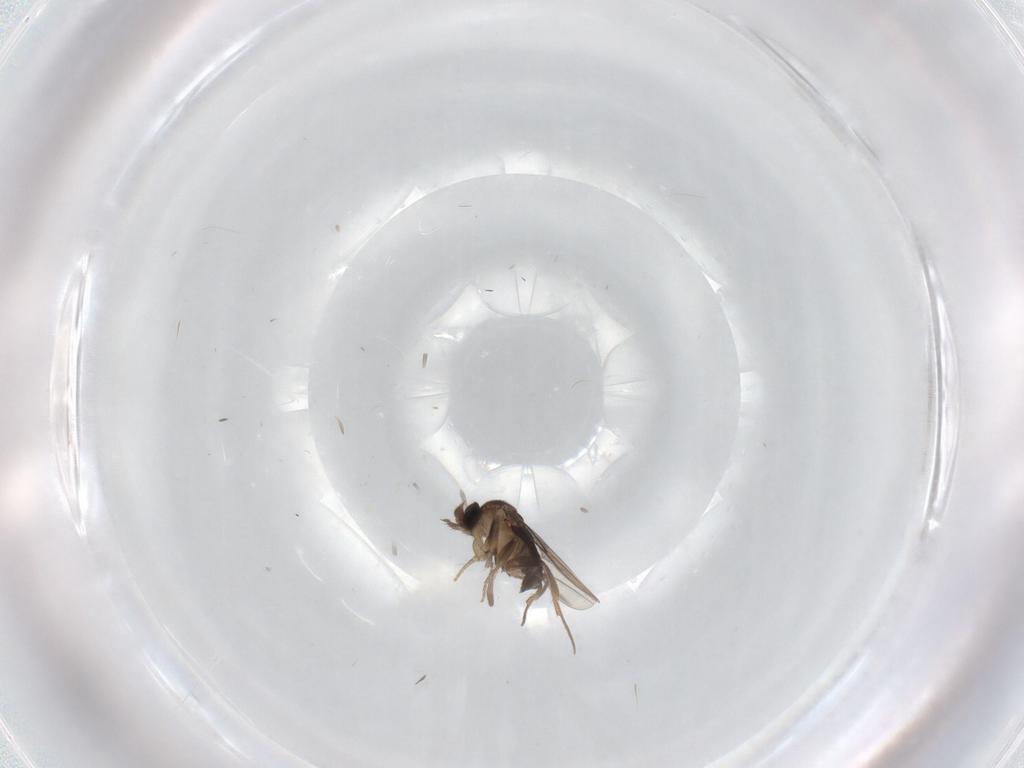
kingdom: Animalia
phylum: Arthropoda
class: Insecta
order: Diptera
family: Phoridae
